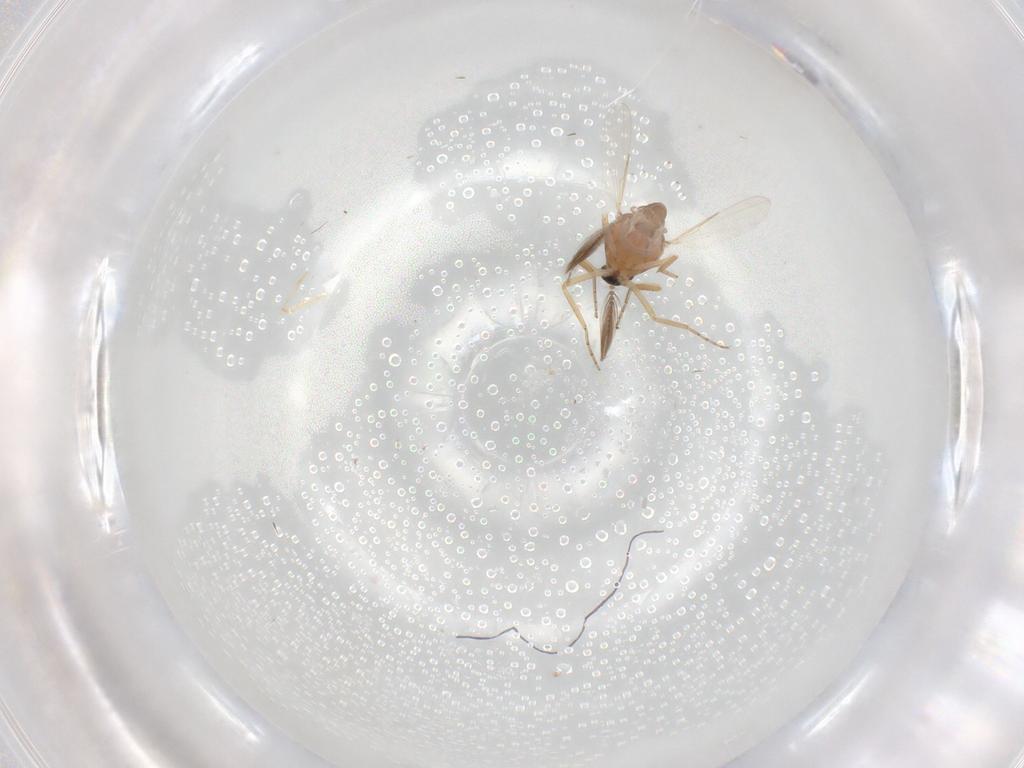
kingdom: Animalia
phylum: Arthropoda
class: Insecta
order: Diptera
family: Ceratopogonidae
